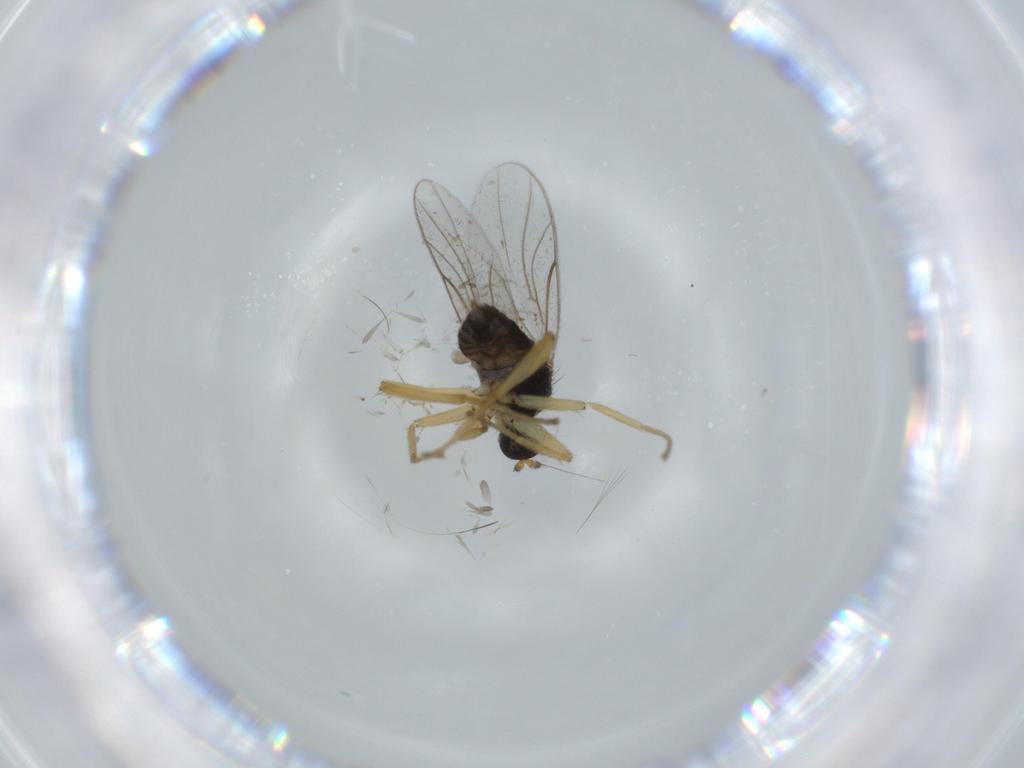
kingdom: Animalia
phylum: Arthropoda
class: Insecta
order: Diptera
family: Hybotidae
